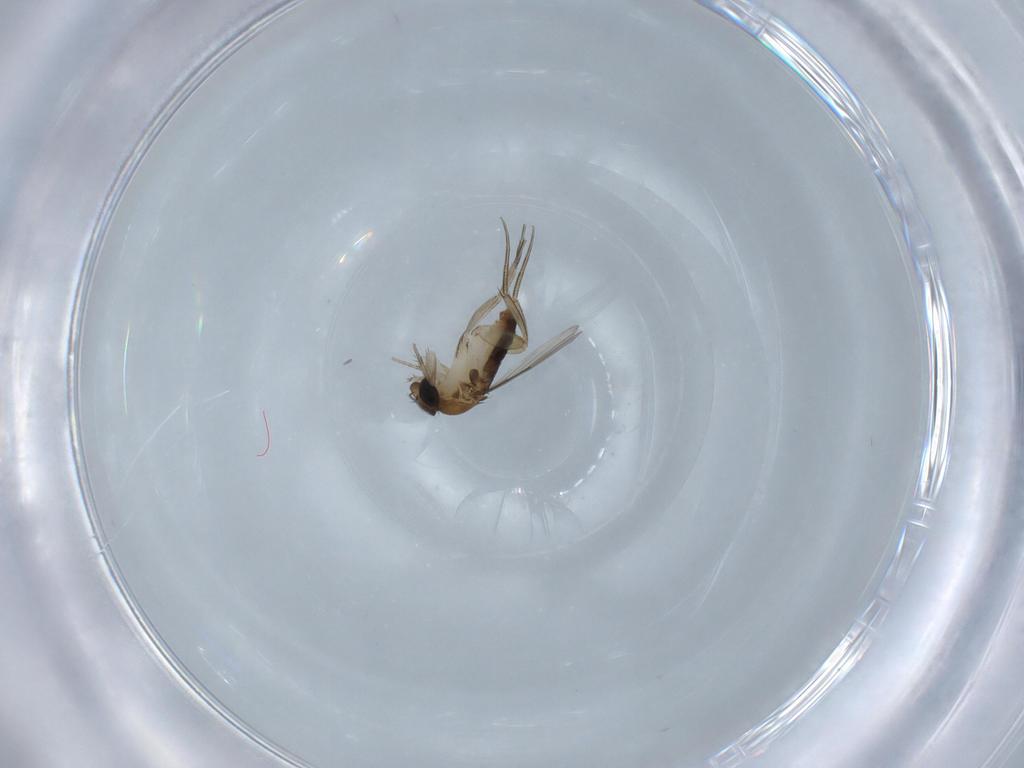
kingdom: Animalia
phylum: Arthropoda
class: Insecta
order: Diptera
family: Phoridae
